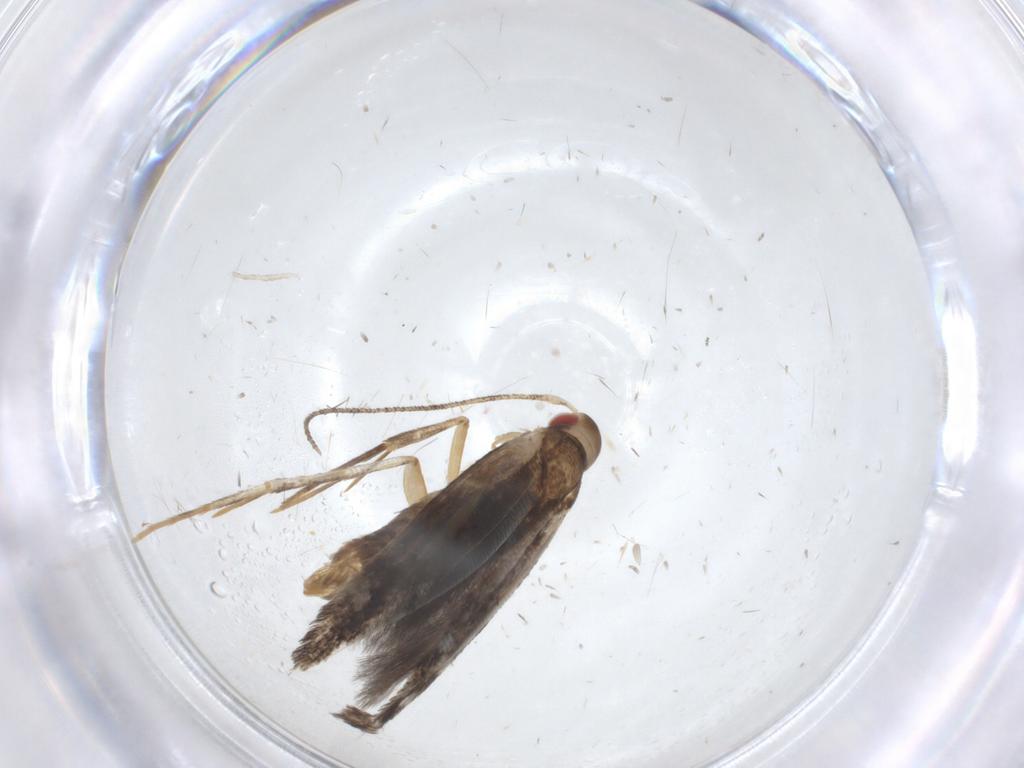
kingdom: Animalia
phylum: Arthropoda
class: Insecta
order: Lepidoptera
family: Cosmopterigidae
